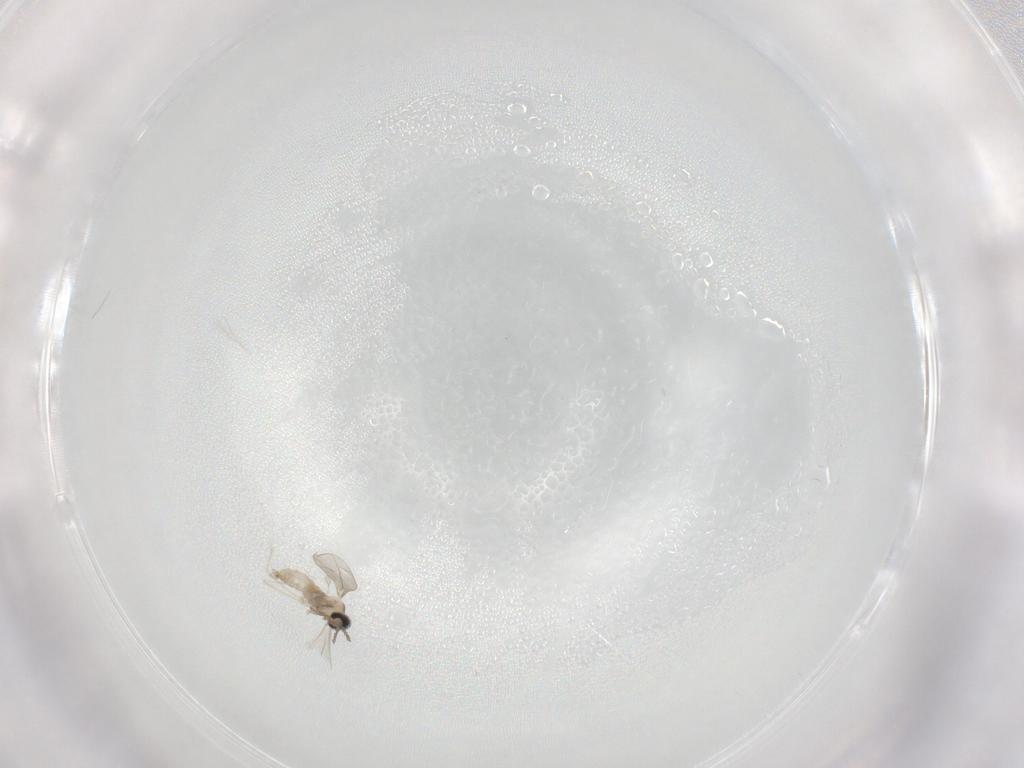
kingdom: Animalia
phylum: Arthropoda
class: Insecta
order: Diptera
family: Cecidomyiidae
